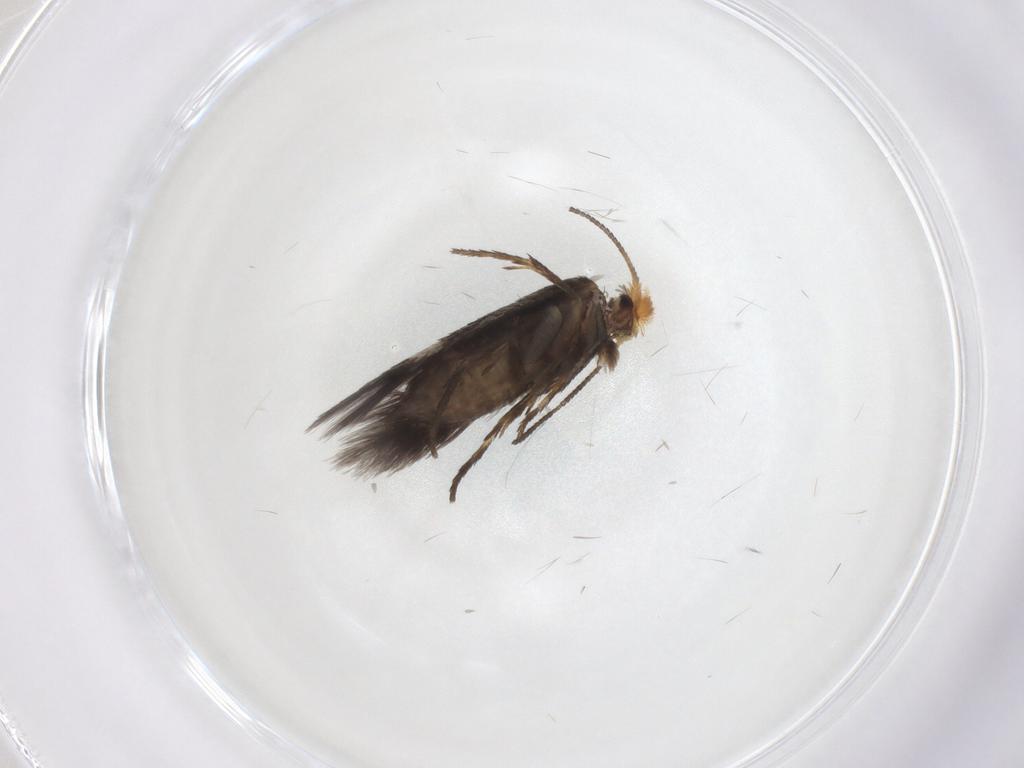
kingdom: Animalia
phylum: Arthropoda
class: Insecta
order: Lepidoptera
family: Nepticulidae
